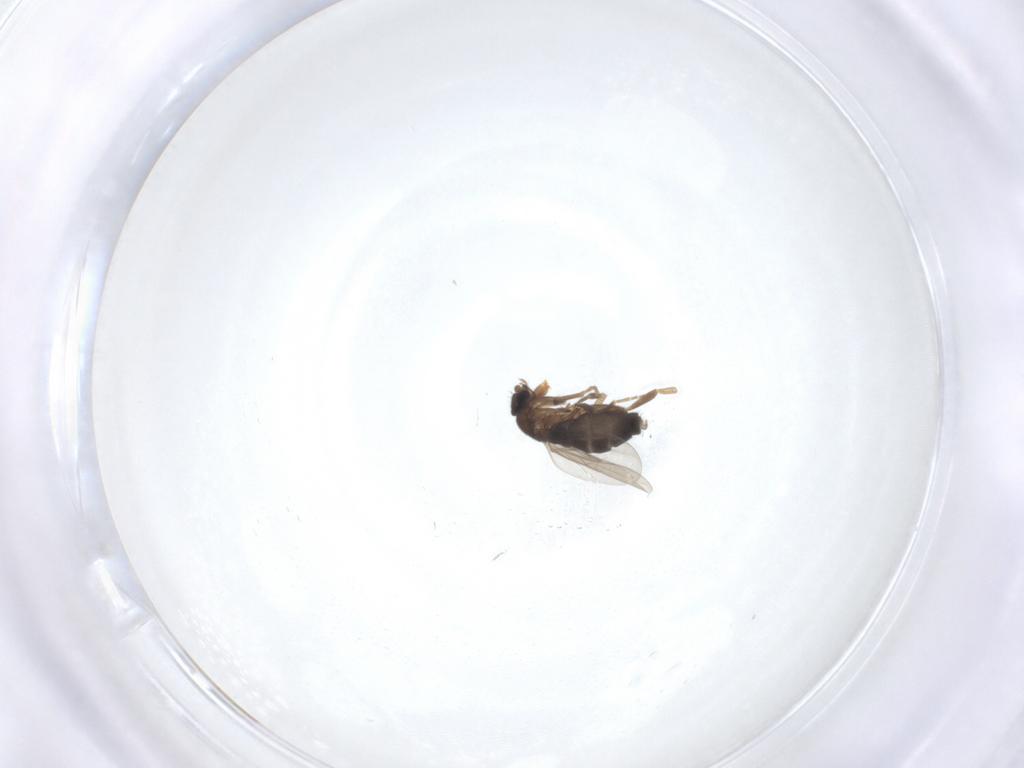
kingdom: Animalia
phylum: Arthropoda
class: Insecta
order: Diptera
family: Phoridae
